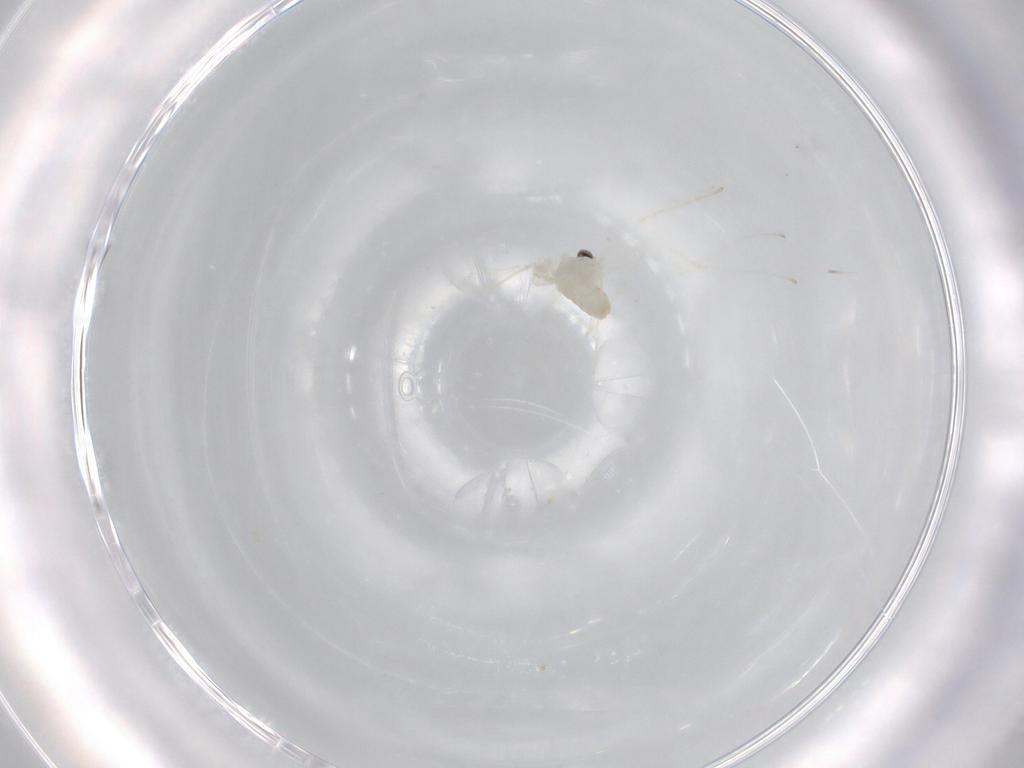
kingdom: Animalia
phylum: Arthropoda
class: Insecta
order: Diptera
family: Cecidomyiidae
